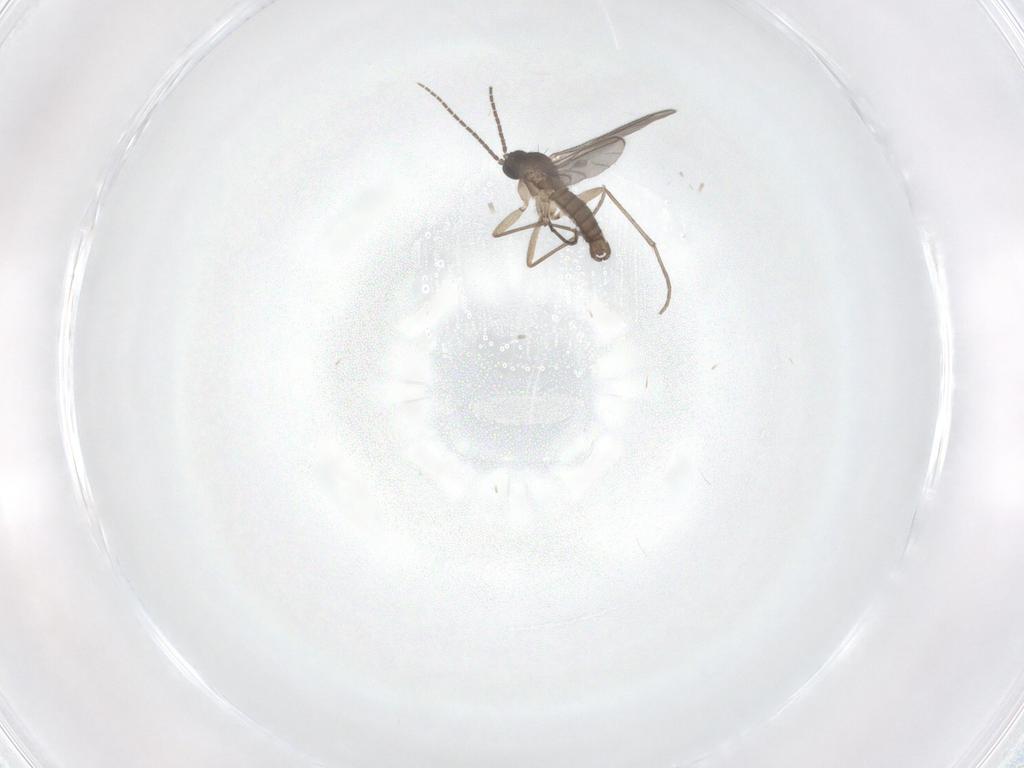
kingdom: Animalia
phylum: Arthropoda
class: Insecta
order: Diptera
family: Sciaridae
